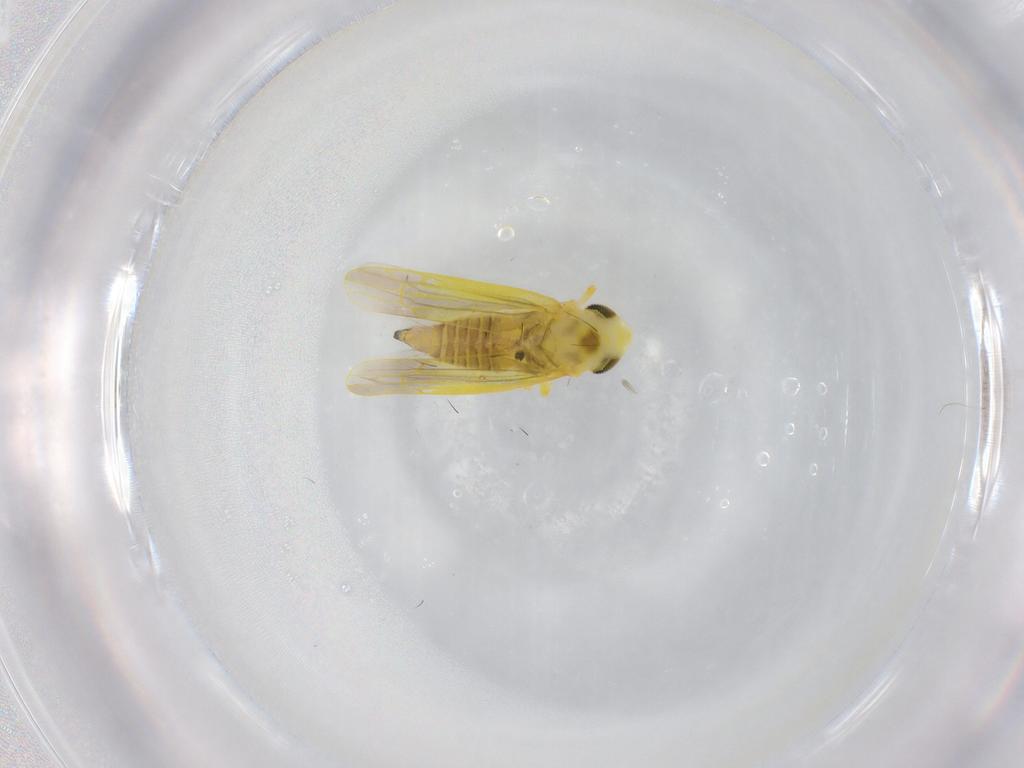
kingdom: Animalia
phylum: Arthropoda
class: Insecta
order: Hemiptera
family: Cicadellidae
